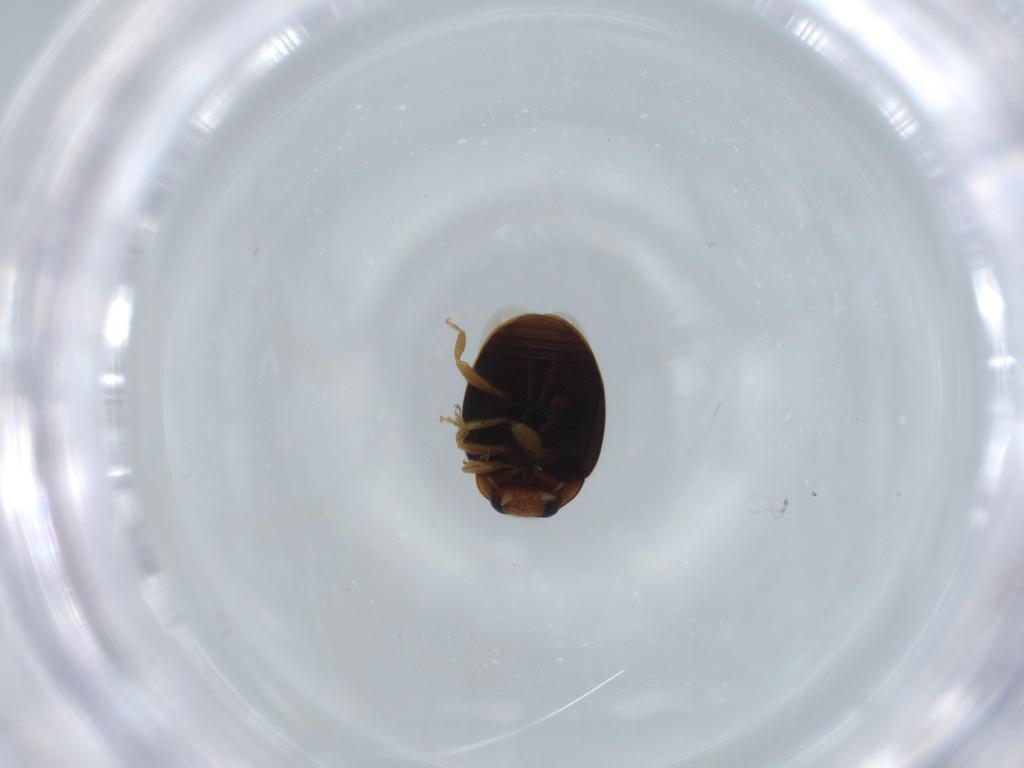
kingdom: Animalia
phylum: Arthropoda
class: Insecta
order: Coleoptera
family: Coccinellidae
